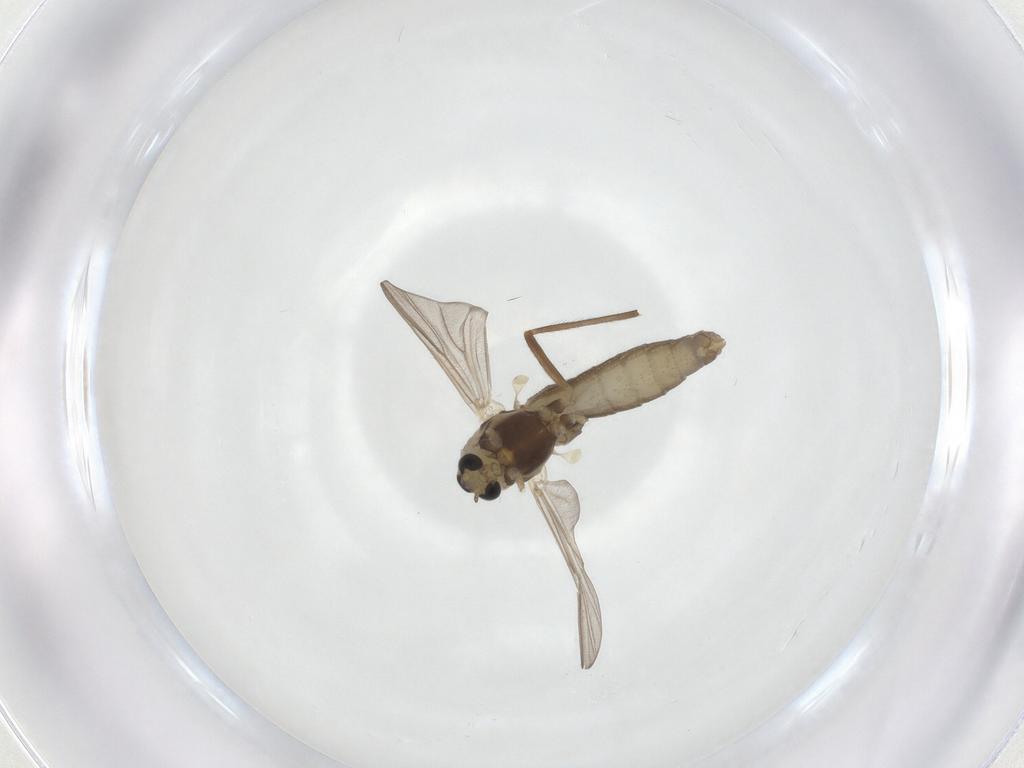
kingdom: Animalia
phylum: Arthropoda
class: Insecta
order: Diptera
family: Chironomidae
